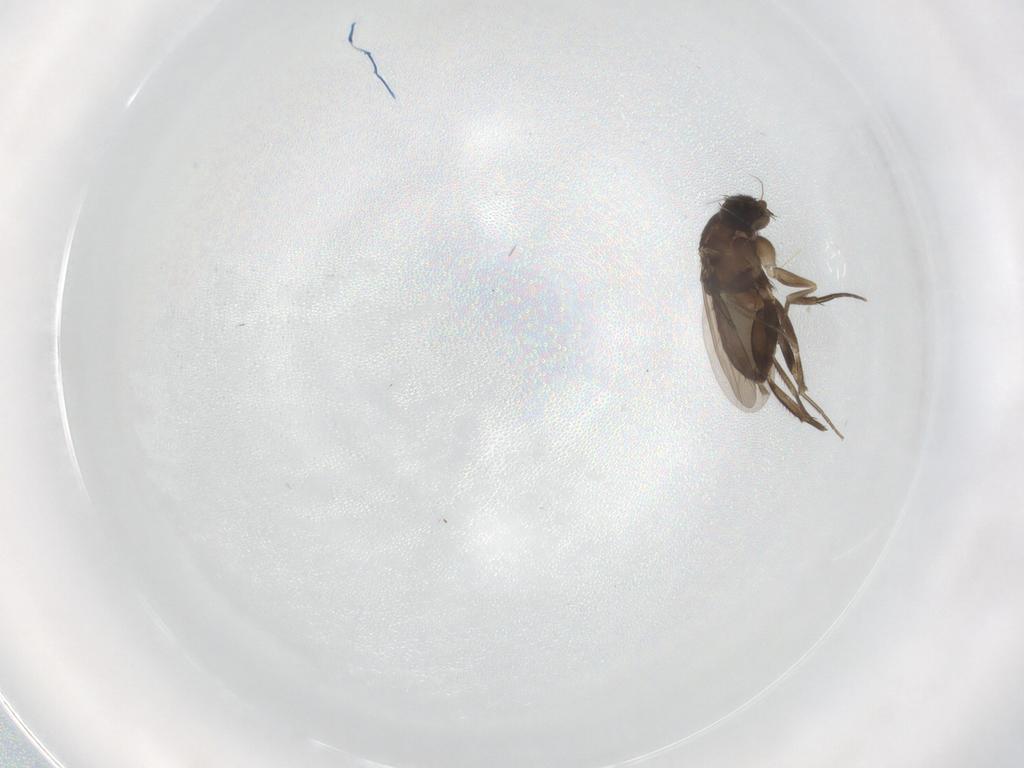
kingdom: Animalia
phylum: Arthropoda
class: Insecta
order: Diptera
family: Phoridae
